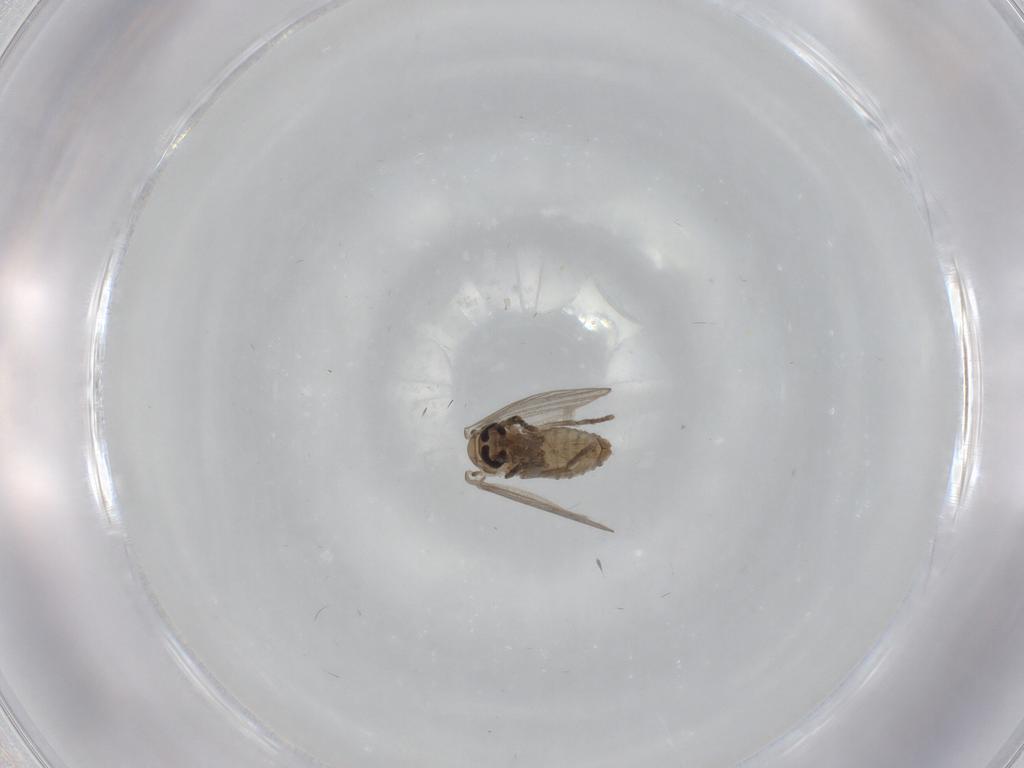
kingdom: Animalia
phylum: Arthropoda
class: Insecta
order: Diptera
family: Psychodidae
